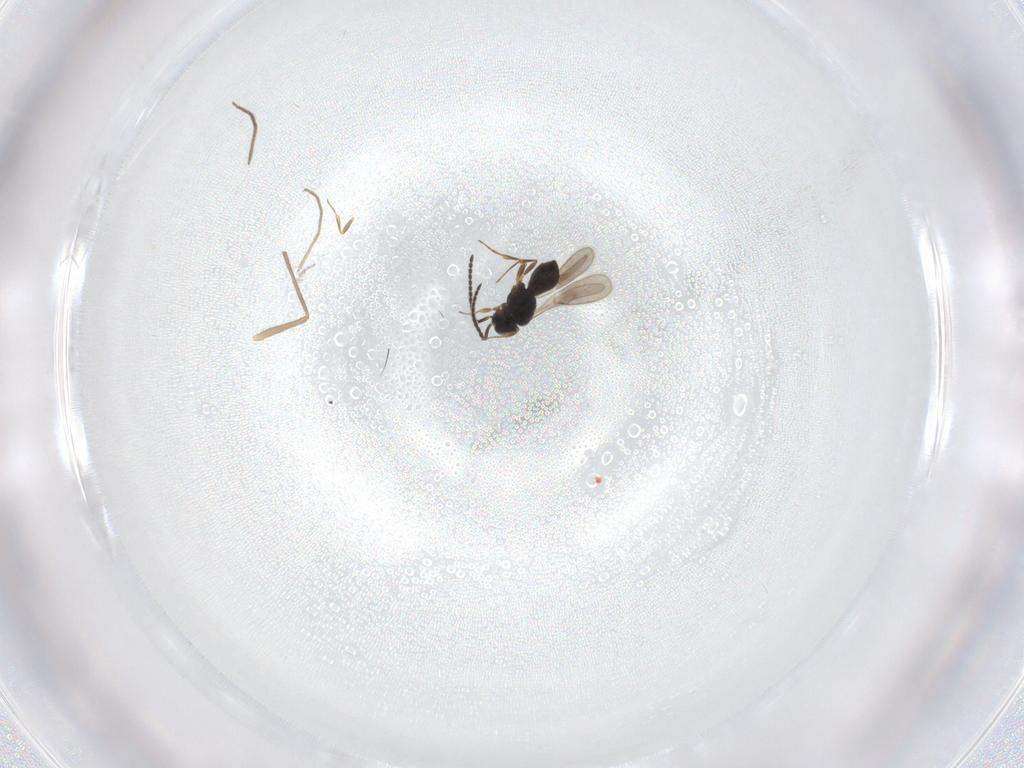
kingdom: Animalia
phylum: Arthropoda
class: Insecta
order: Hymenoptera
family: Scelionidae
